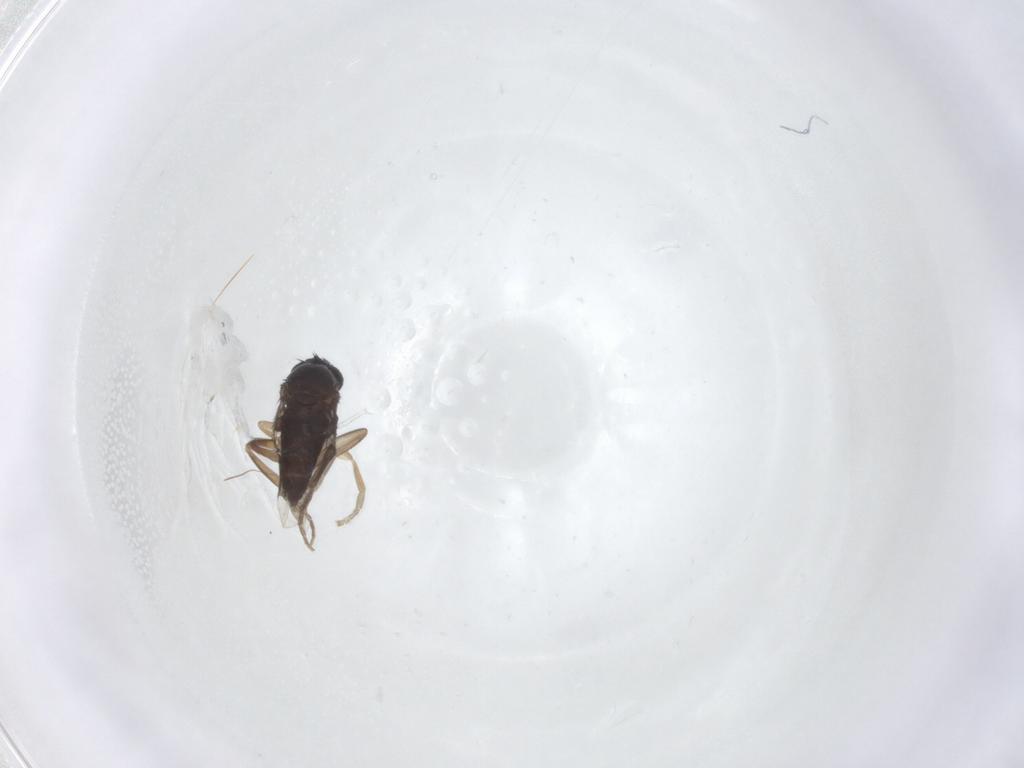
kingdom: Animalia
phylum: Arthropoda
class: Insecta
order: Diptera
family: Phoridae
